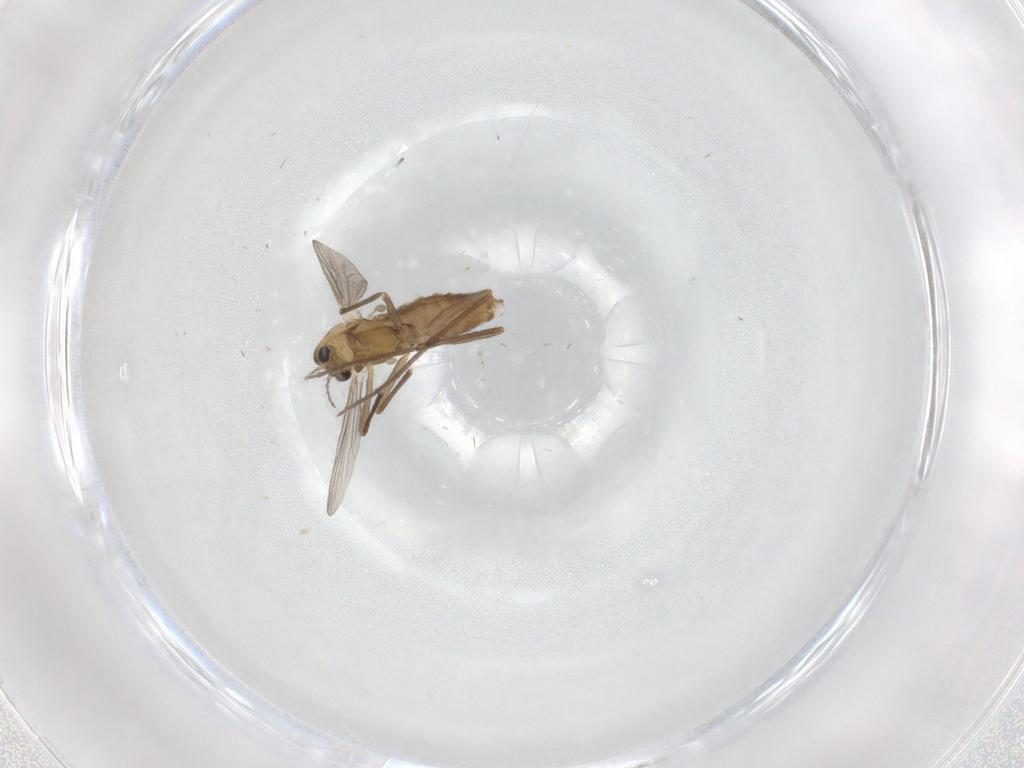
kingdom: Animalia
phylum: Arthropoda
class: Insecta
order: Diptera
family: Chironomidae
